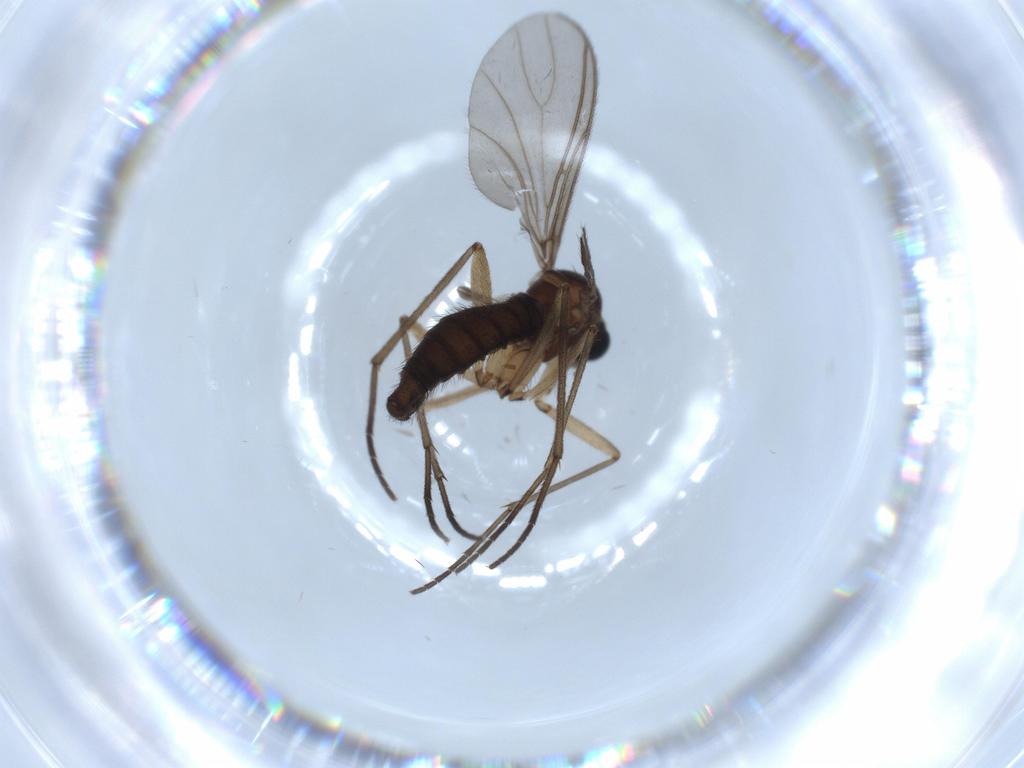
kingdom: Animalia
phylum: Arthropoda
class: Insecta
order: Diptera
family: Sciaridae
